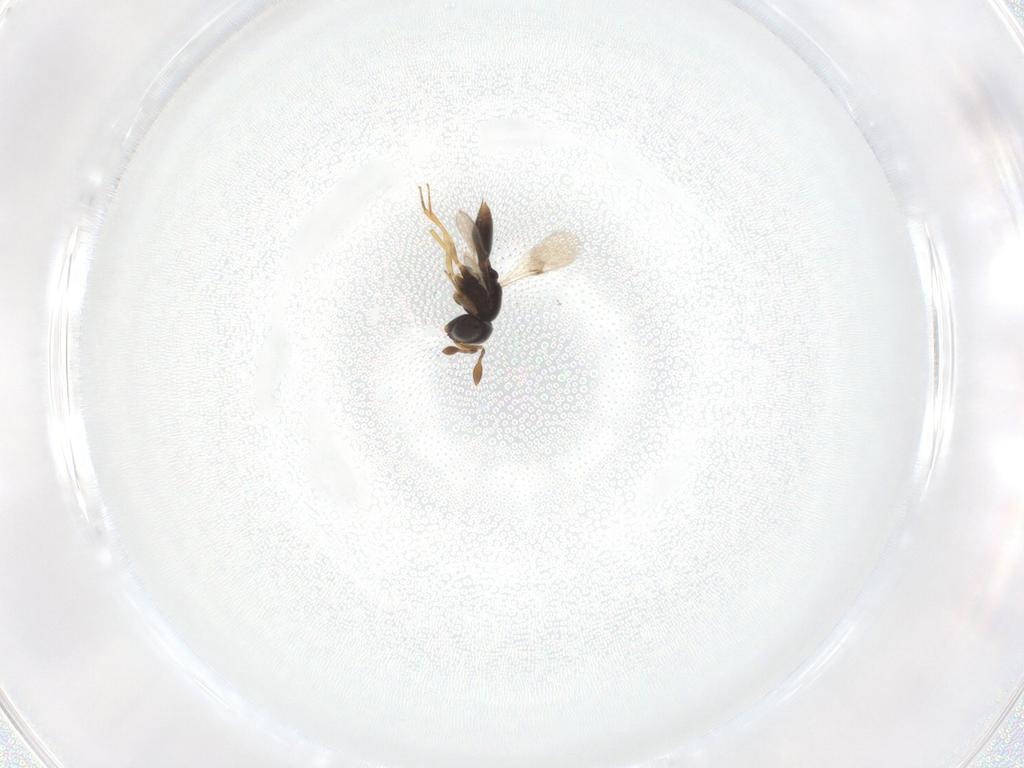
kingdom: Animalia
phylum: Arthropoda
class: Insecta
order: Hymenoptera
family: Scelionidae
